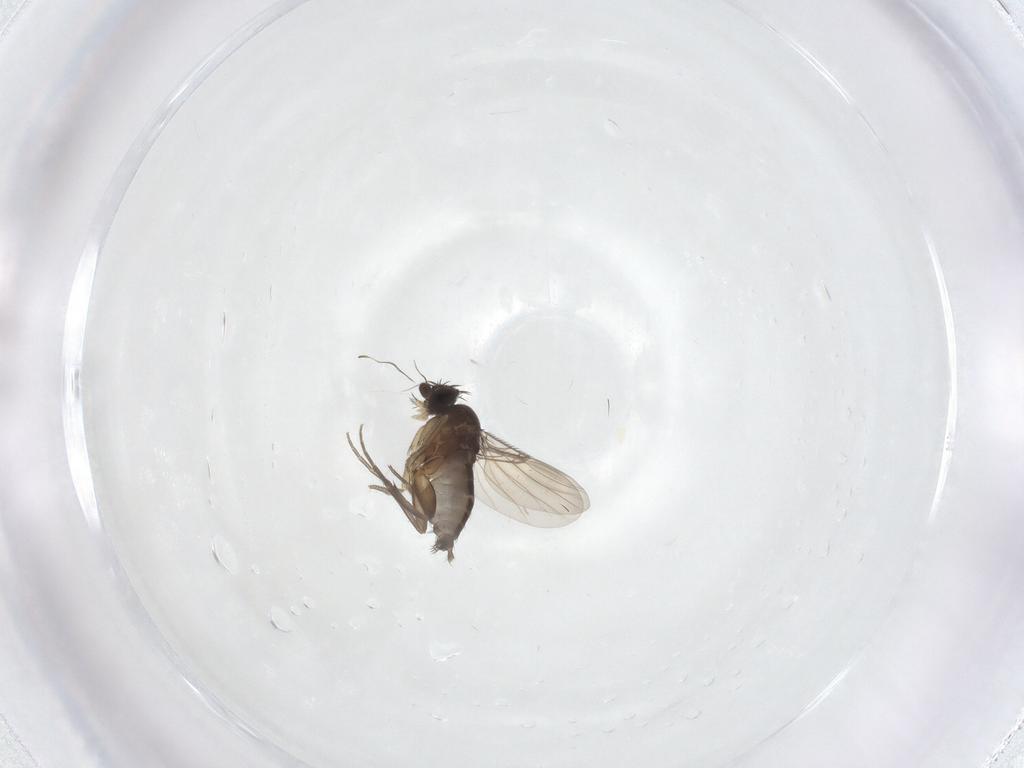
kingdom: Animalia
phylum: Arthropoda
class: Insecta
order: Diptera
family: Phoridae
